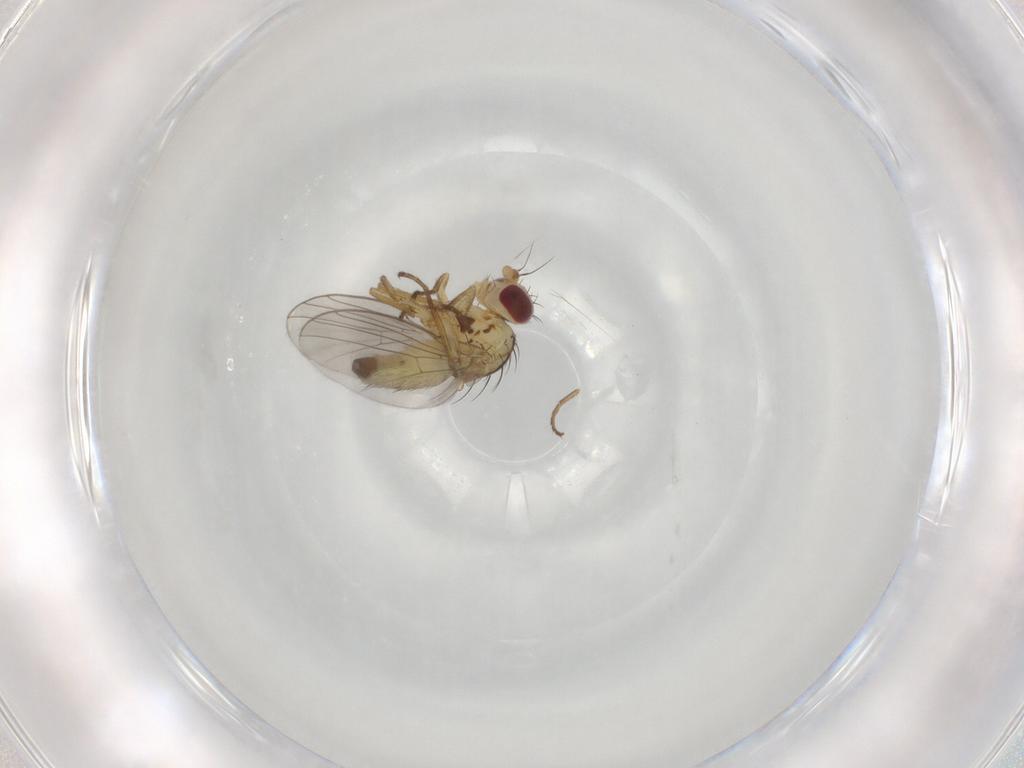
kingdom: Animalia
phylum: Arthropoda
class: Insecta
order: Diptera
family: Agromyzidae
